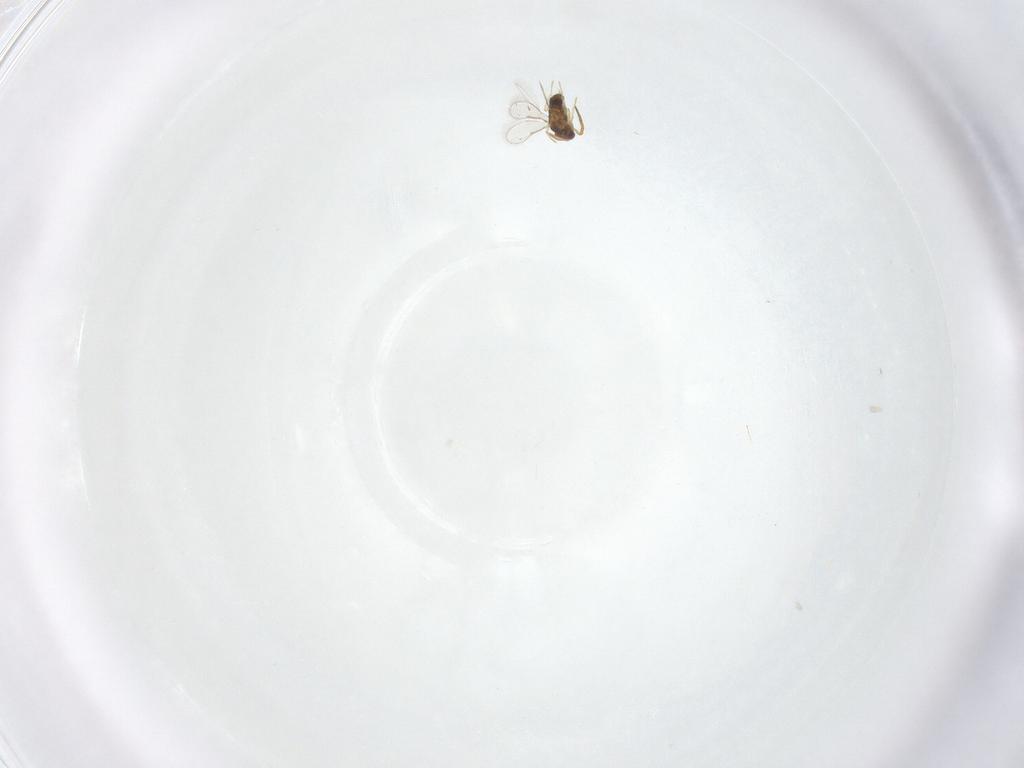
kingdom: Animalia
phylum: Arthropoda
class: Insecta
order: Hymenoptera
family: Aphelinidae
